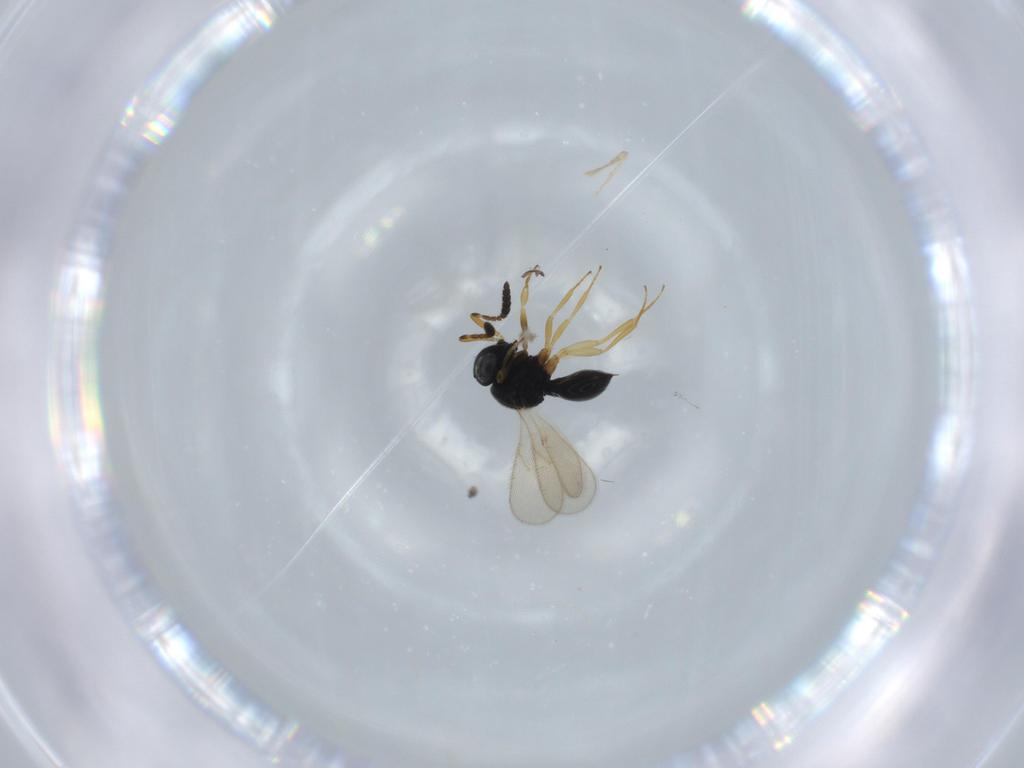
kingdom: Animalia
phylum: Arthropoda
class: Insecta
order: Hymenoptera
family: Scelionidae
